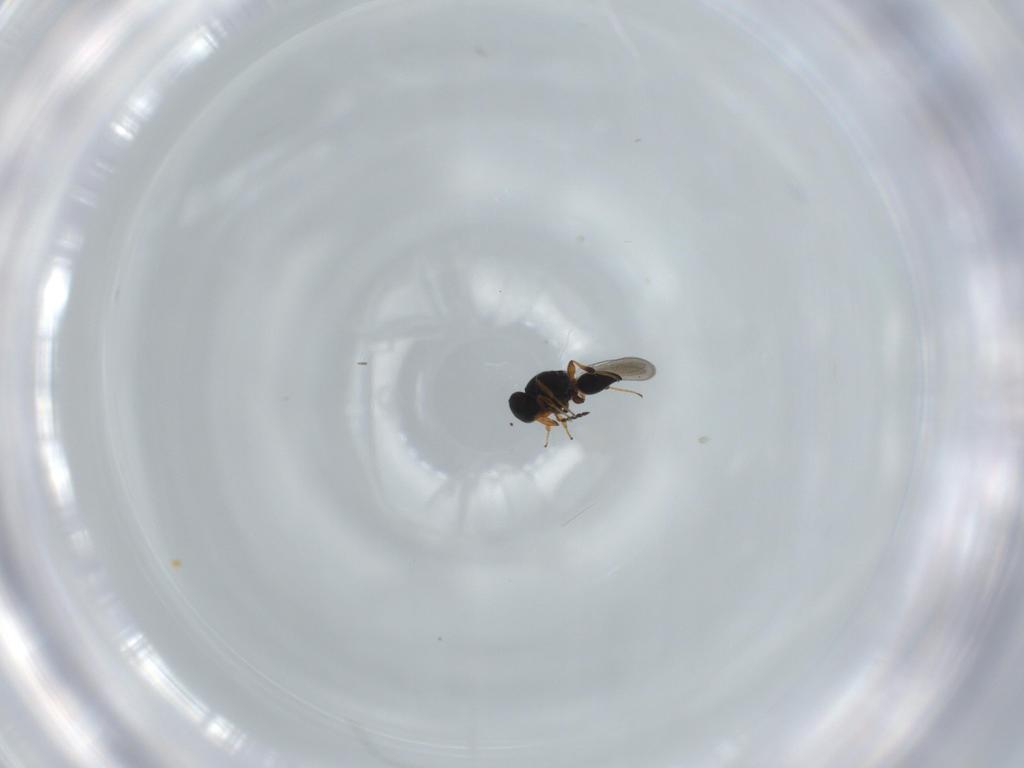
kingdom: Animalia
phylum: Arthropoda
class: Insecta
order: Hymenoptera
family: Platygastridae
